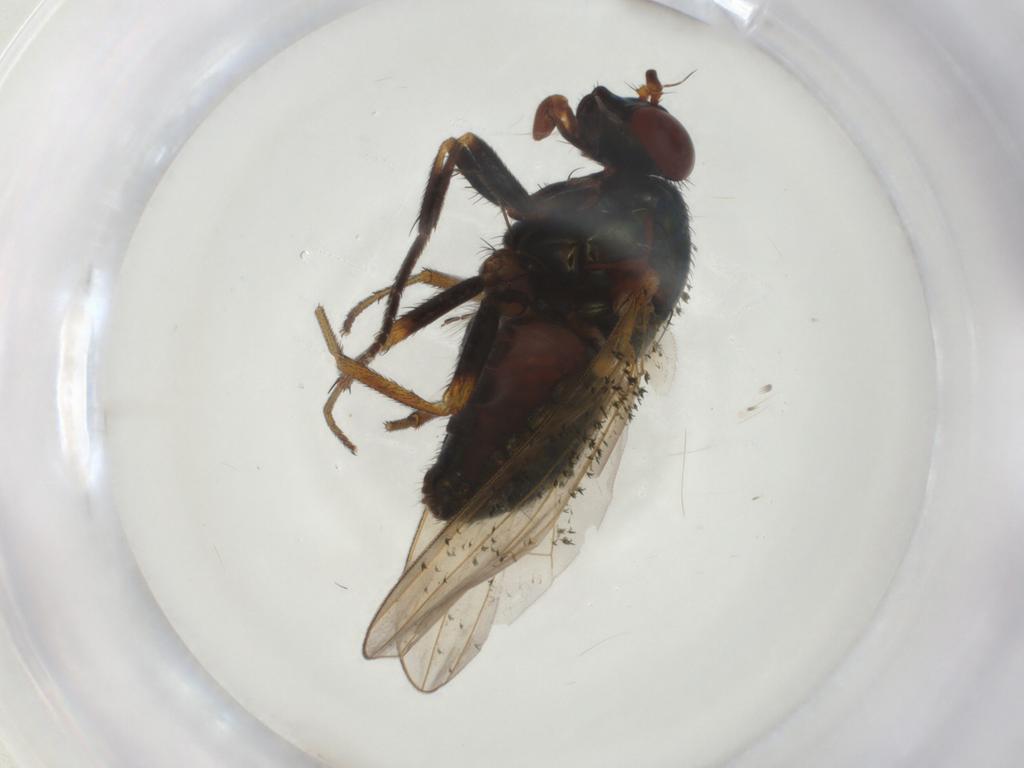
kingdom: Animalia
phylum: Arthropoda
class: Insecta
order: Diptera
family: Lauxaniidae
